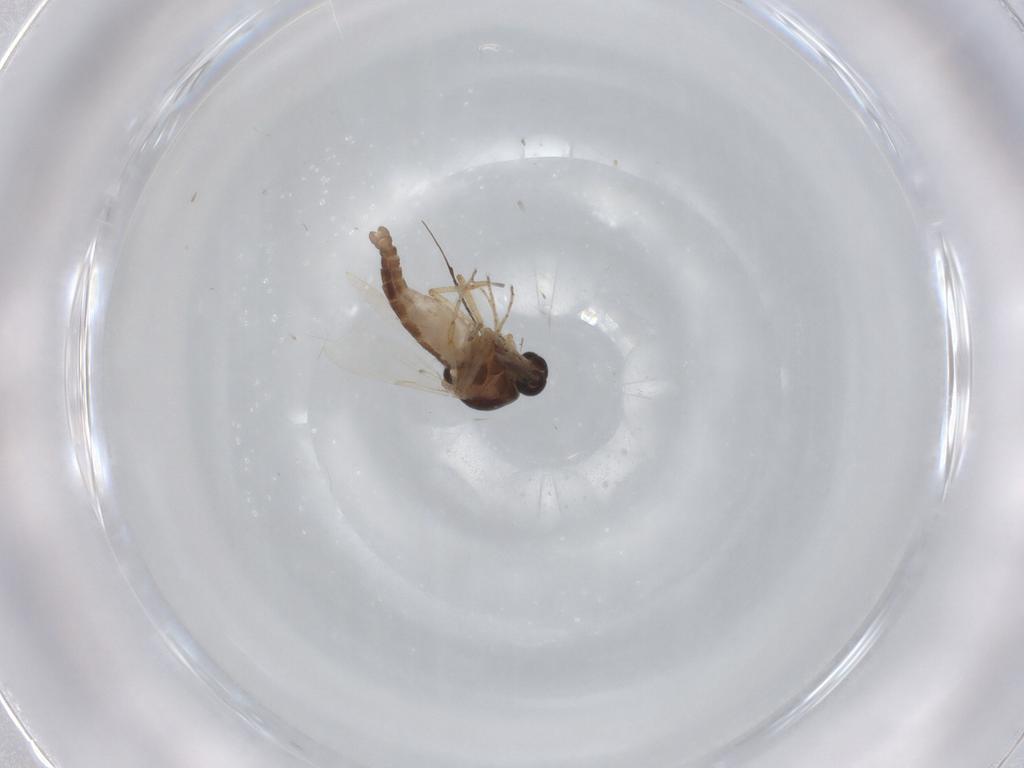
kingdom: Animalia
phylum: Arthropoda
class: Insecta
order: Diptera
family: Ceratopogonidae
